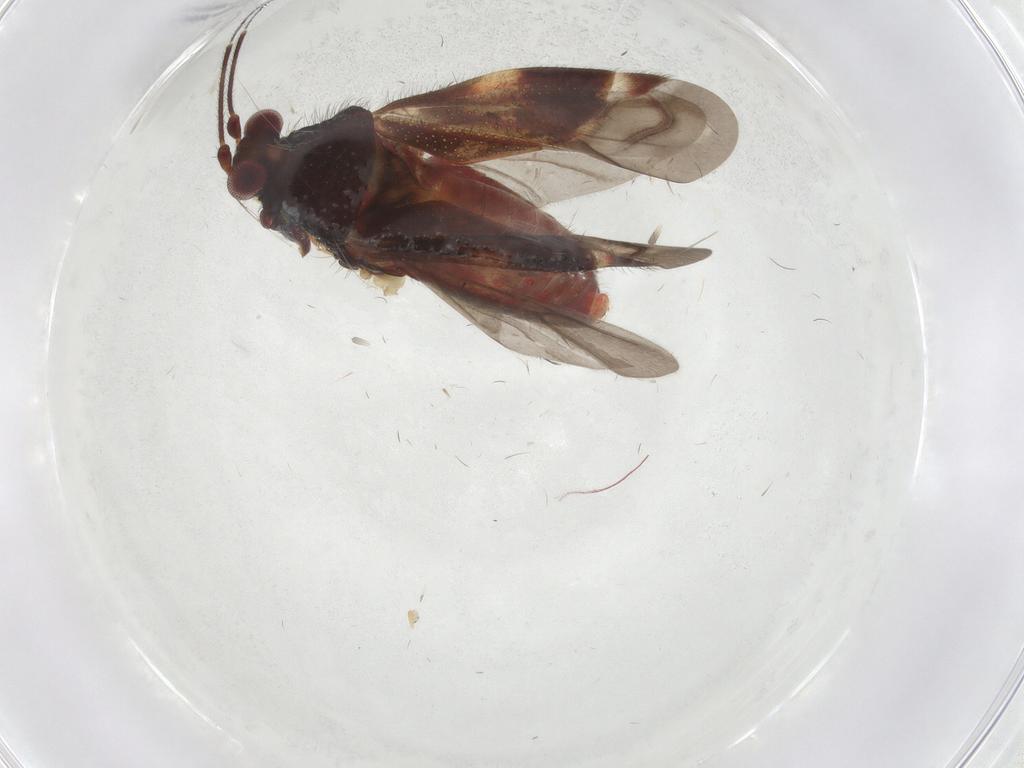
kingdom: Animalia
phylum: Arthropoda
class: Insecta
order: Hemiptera
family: Miridae
